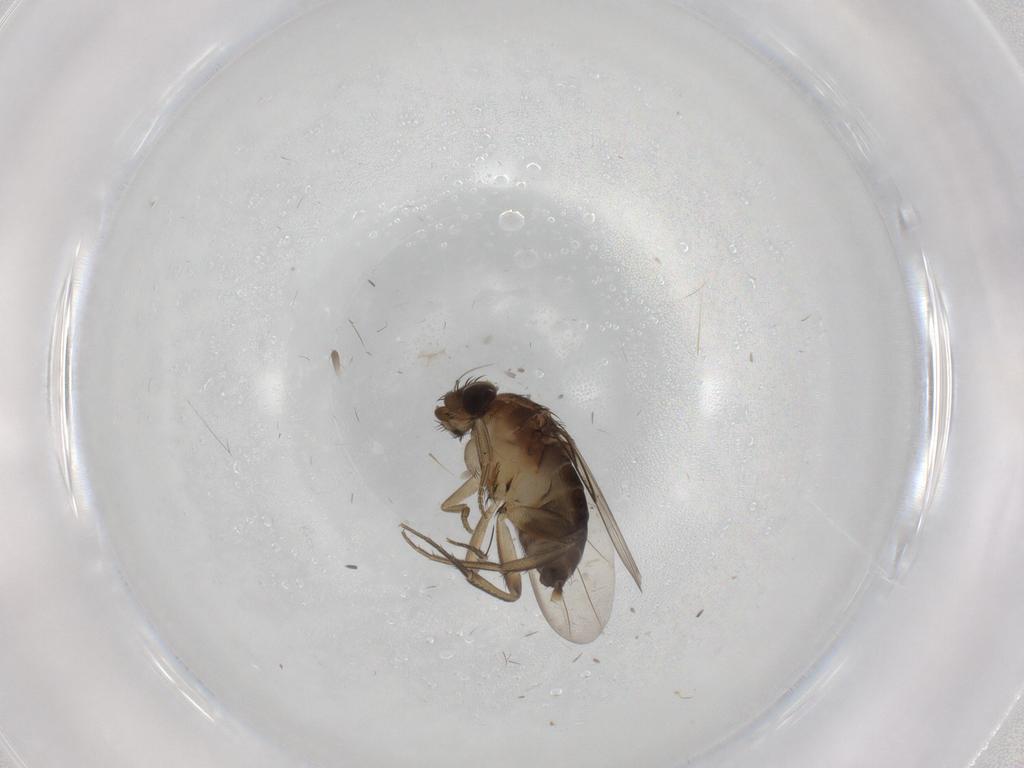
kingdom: Animalia
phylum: Arthropoda
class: Insecta
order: Diptera
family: Phoridae
